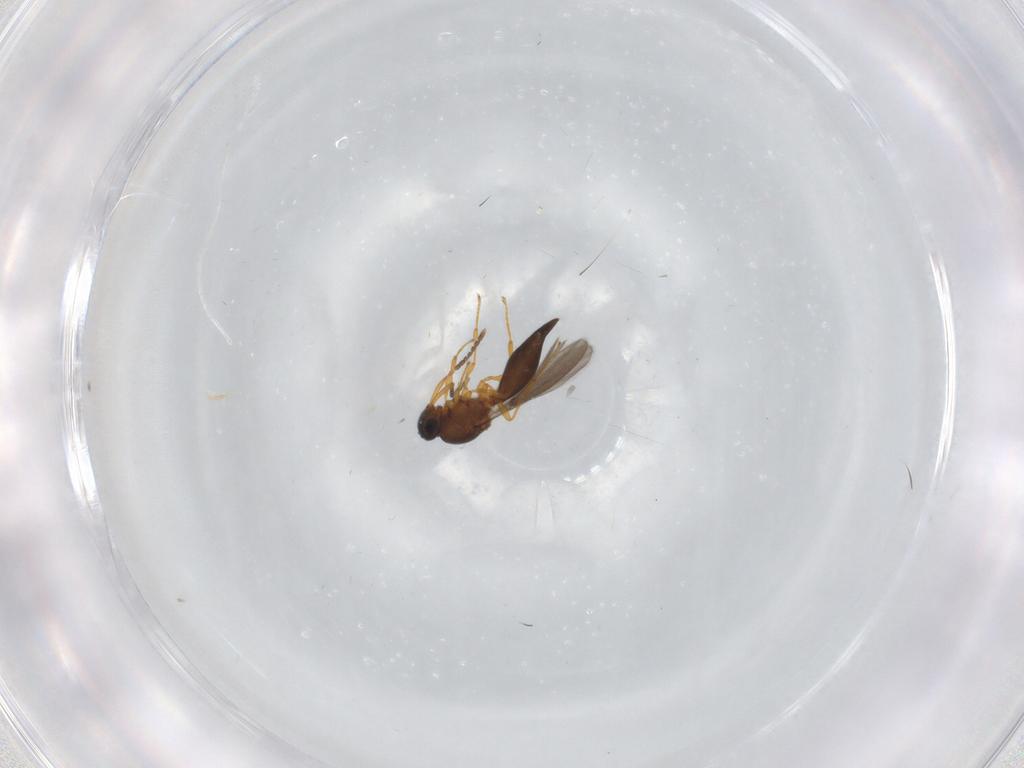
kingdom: Animalia
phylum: Arthropoda
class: Insecta
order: Hymenoptera
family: Platygastridae
